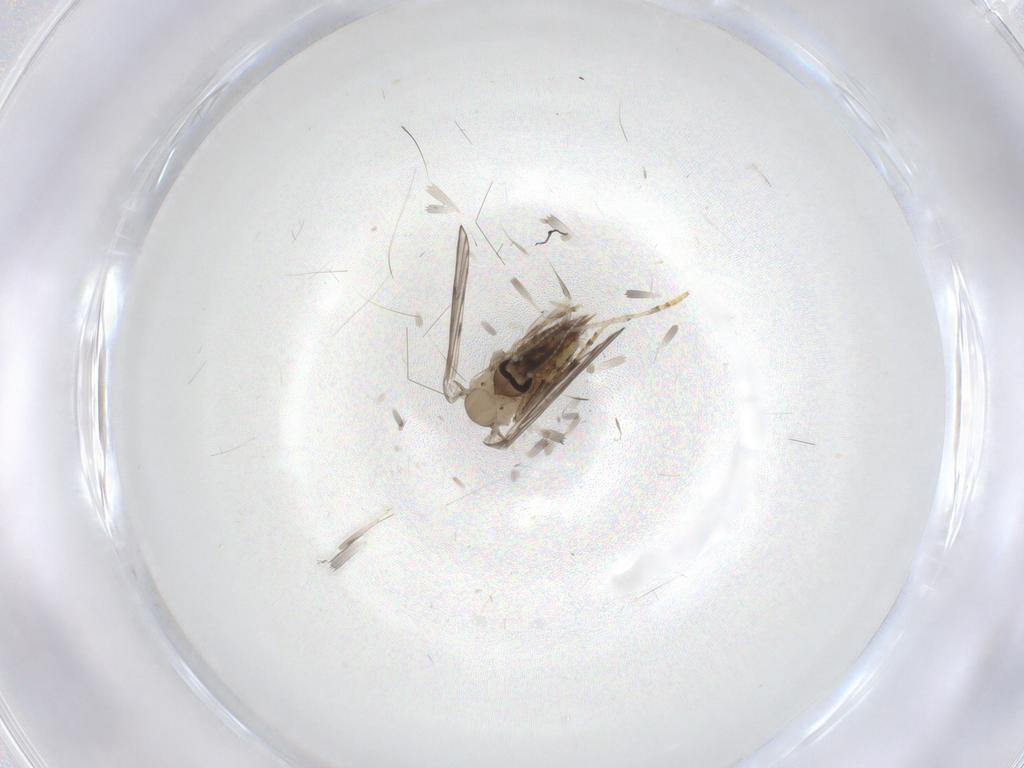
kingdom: Animalia
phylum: Arthropoda
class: Insecta
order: Diptera
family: Psychodidae
